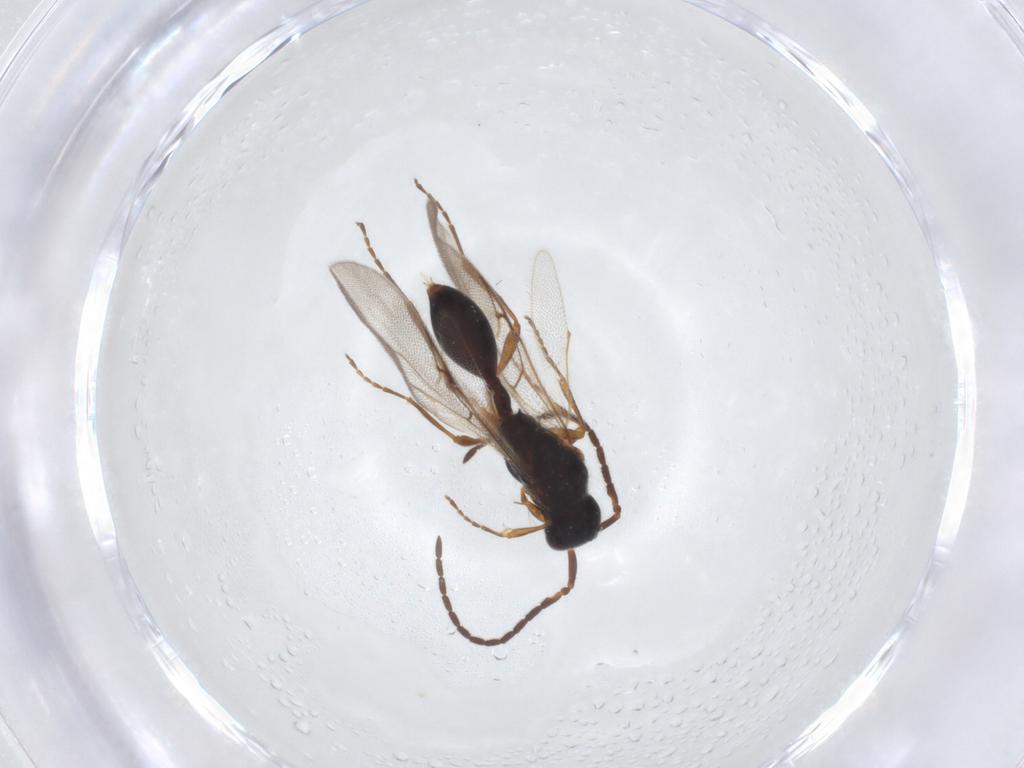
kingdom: Animalia
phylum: Arthropoda
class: Insecta
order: Hymenoptera
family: Diapriidae
